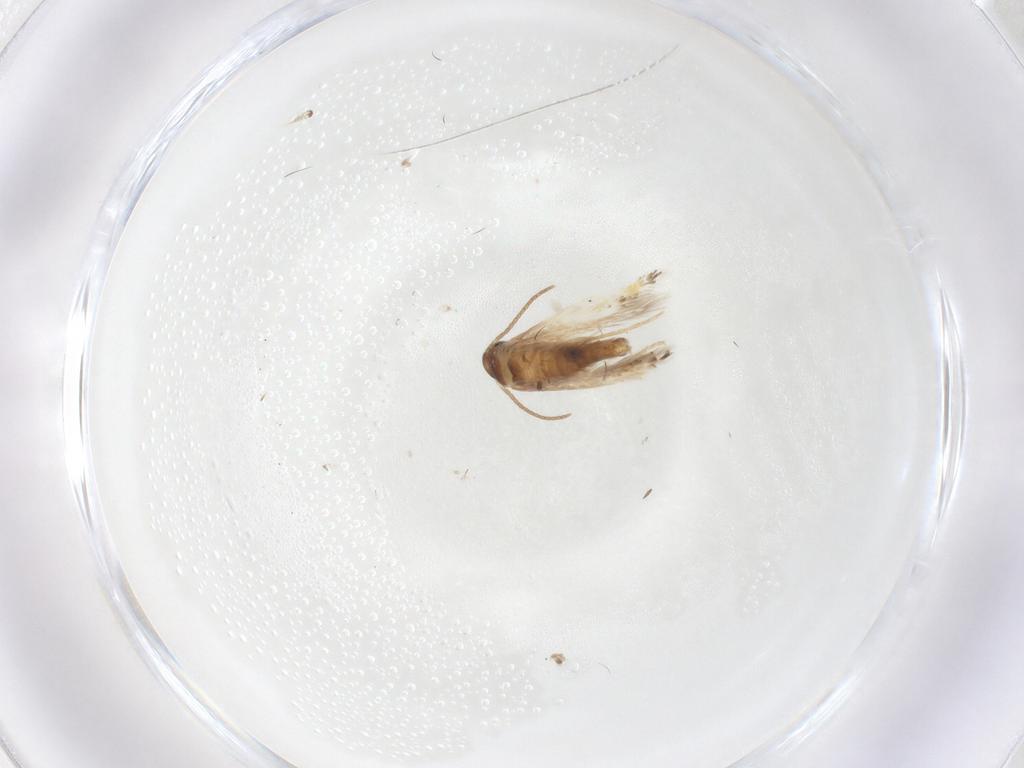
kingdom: Animalia
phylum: Arthropoda
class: Insecta
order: Lepidoptera
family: Heliozelidae
